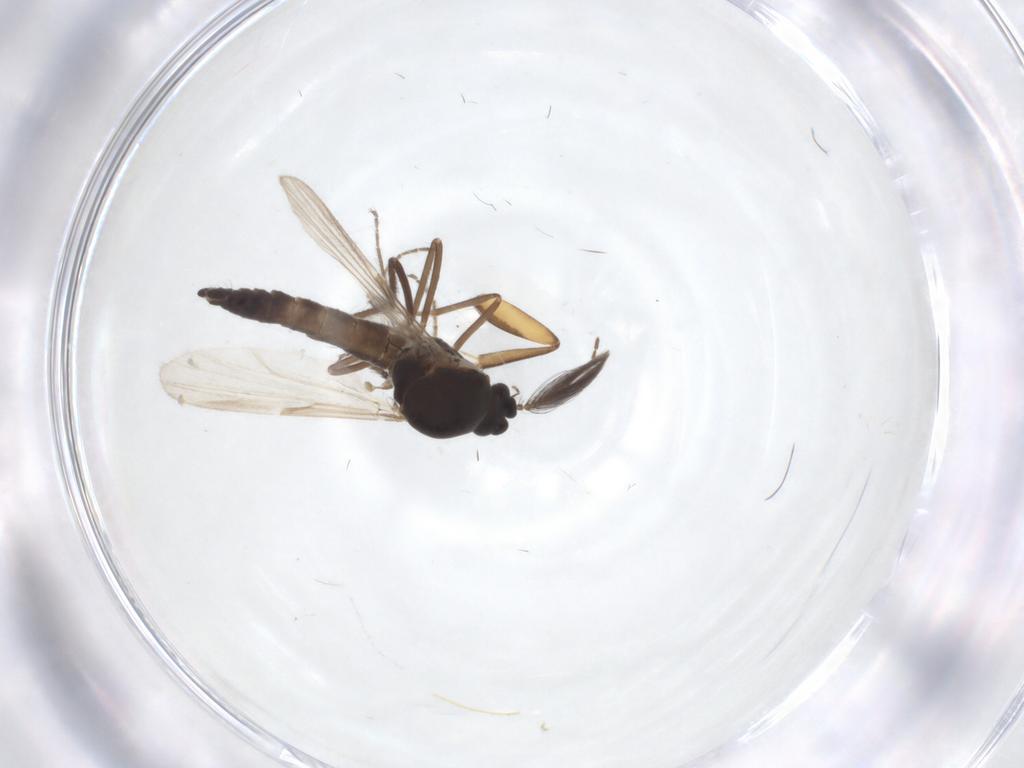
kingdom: Animalia
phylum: Arthropoda
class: Insecta
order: Diptera
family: Ceratopogonidae
